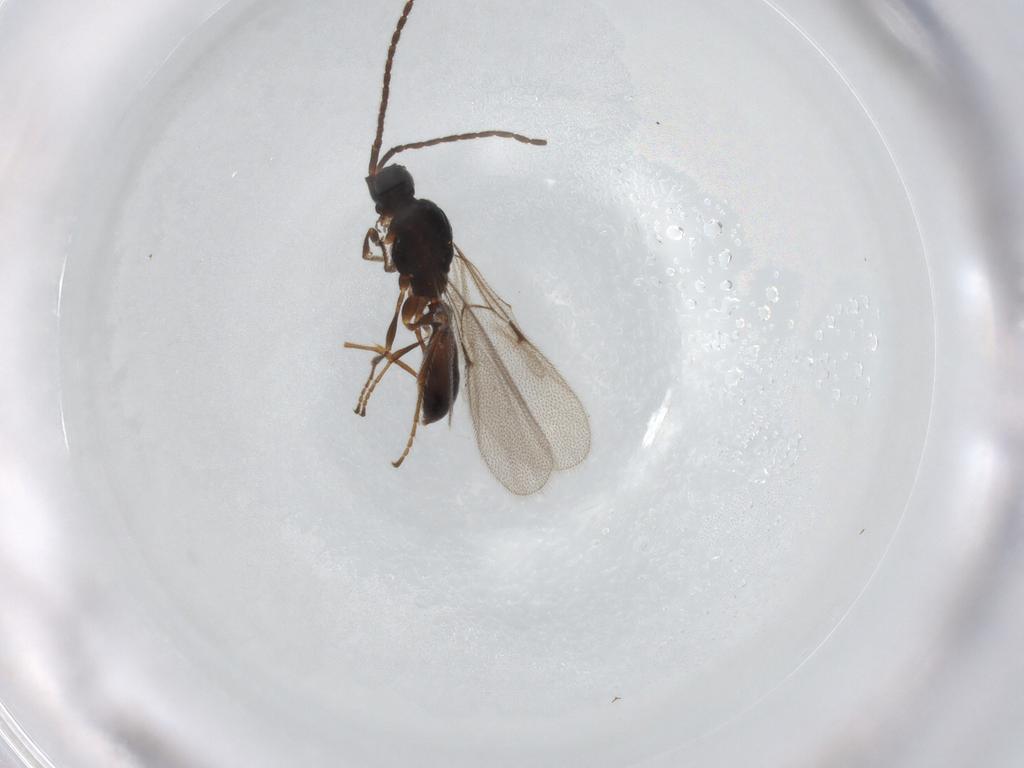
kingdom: Animalia
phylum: Arthropoda
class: Insecta
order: Hymenoptera
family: Diapriidae
